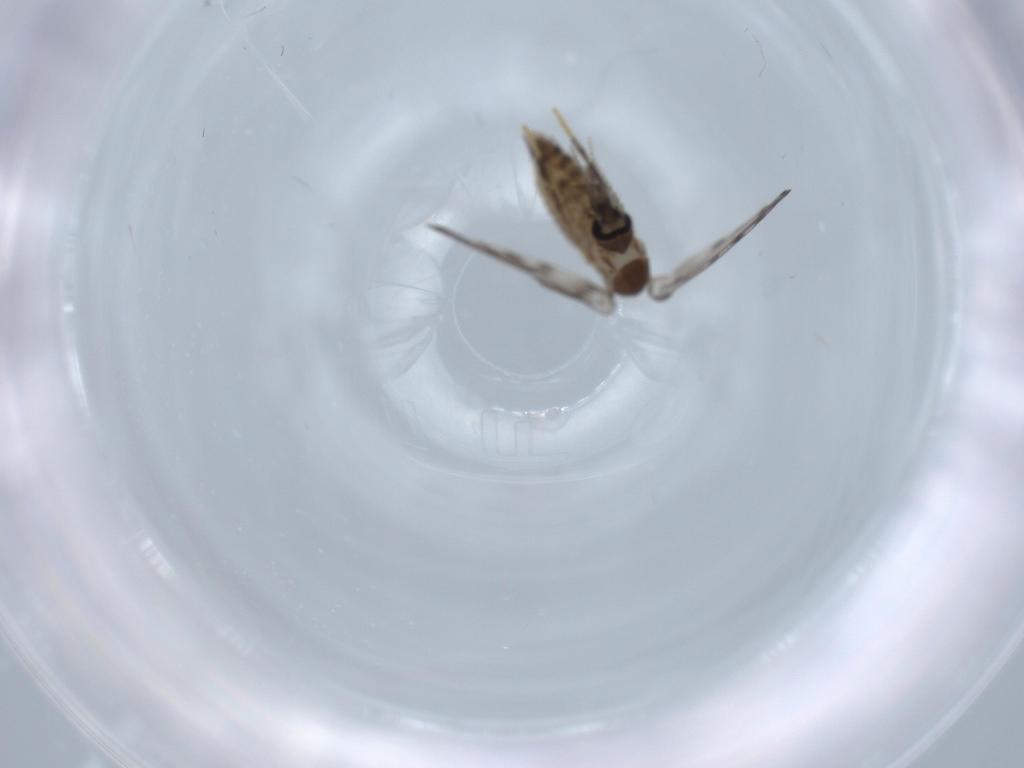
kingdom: Animalia
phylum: Arthropoda
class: Insecta
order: Diptera
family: Cecidomyiidae
